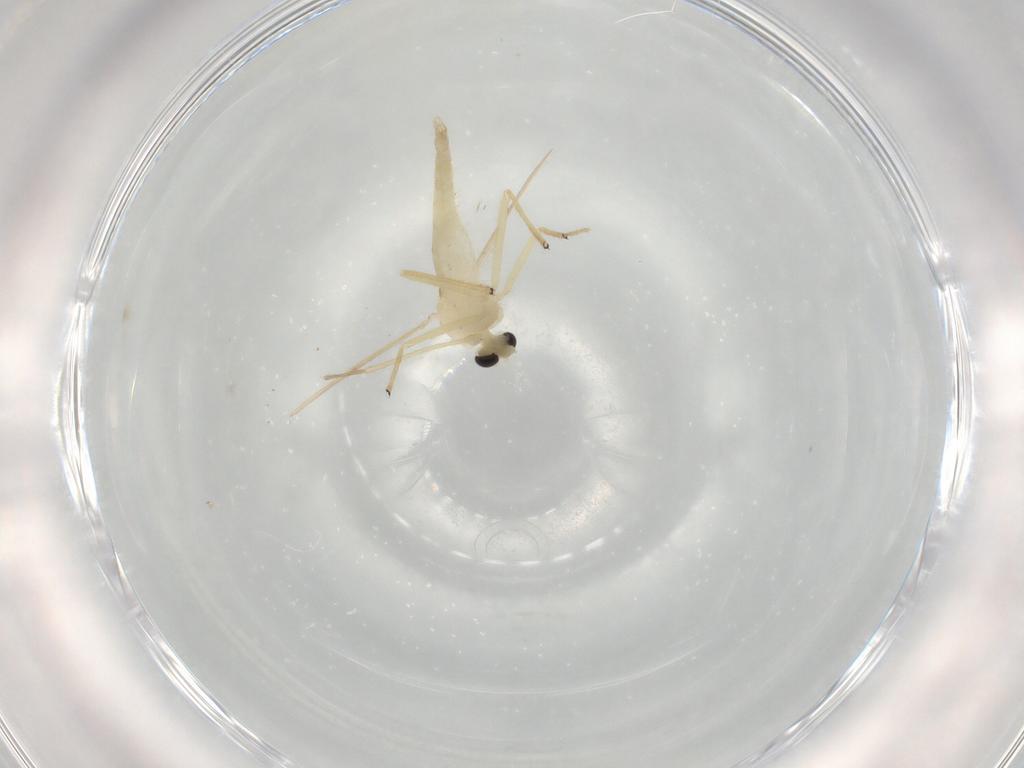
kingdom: Animalia
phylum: Arthropoda
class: Insecta
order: Diptera
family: Chironomidae
